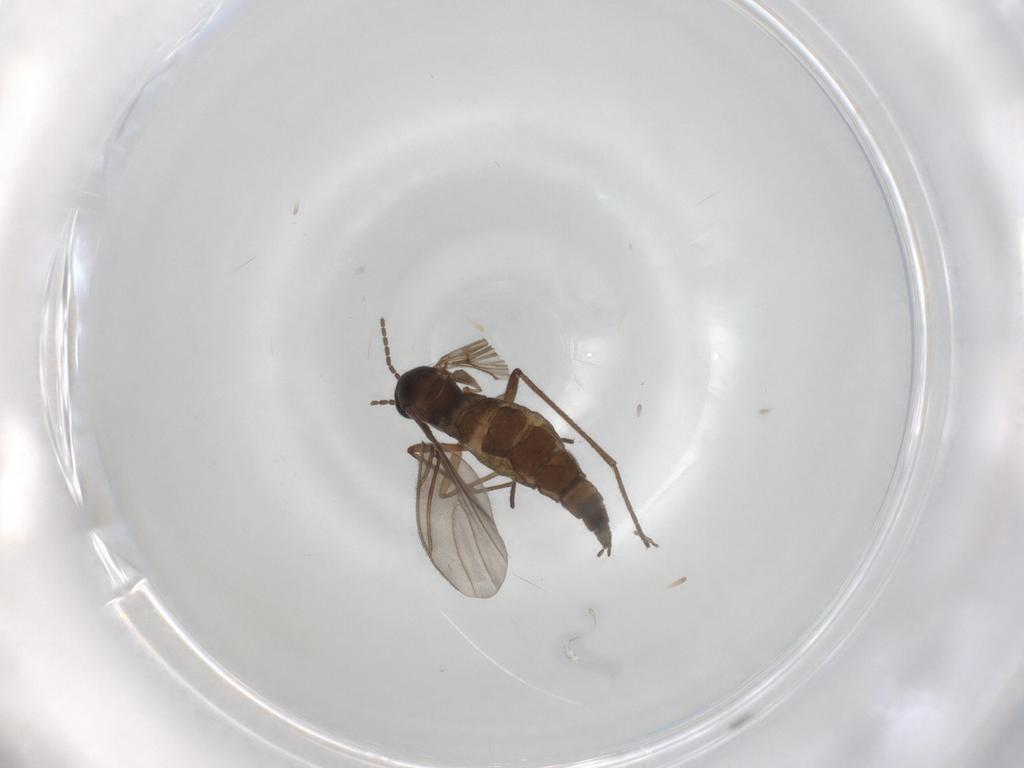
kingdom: Animalia
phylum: Arthropoda
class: Insecta
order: Diptera
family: Sciaridae
